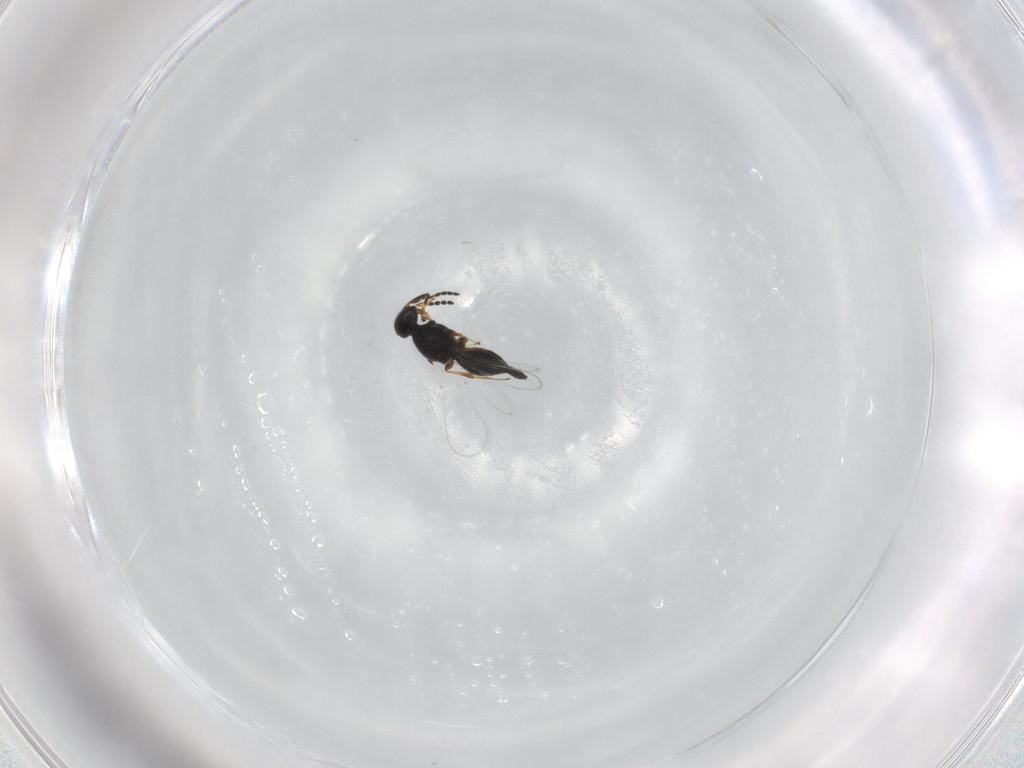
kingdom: Animalia
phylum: Arthropoda
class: Insecta
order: Hymenoptera
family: Platygastridae
